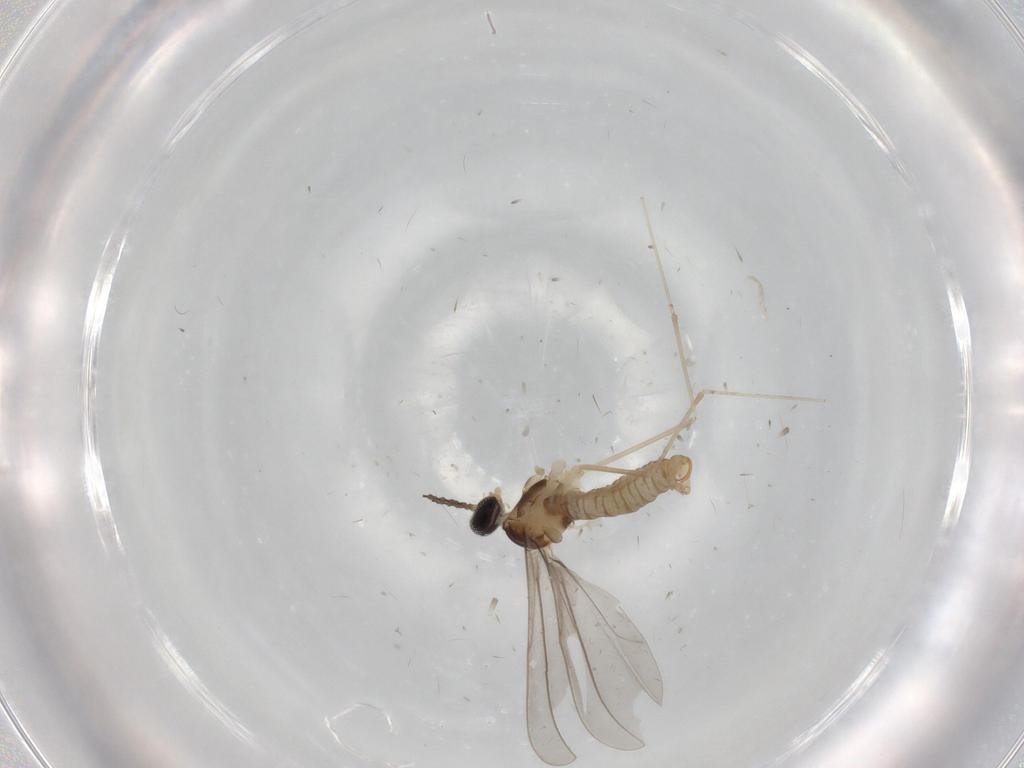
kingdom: Animalia
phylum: Arthropoda
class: Insecta
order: Diptera
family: Cecidomyiidae
